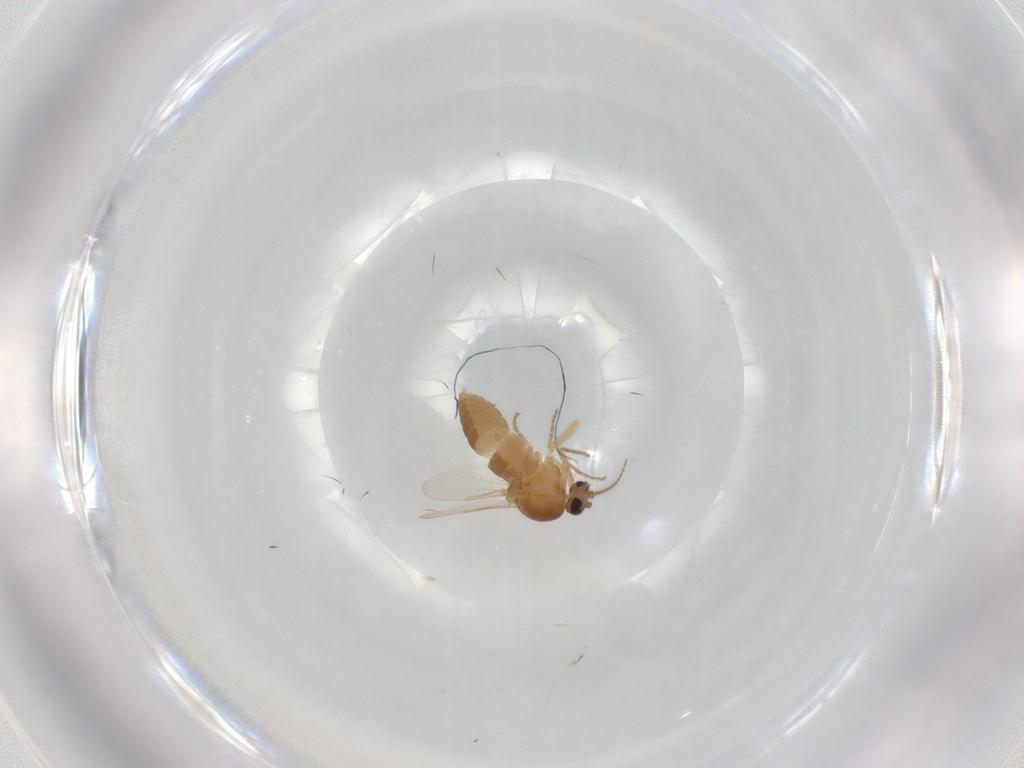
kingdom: Animalia
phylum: Arthropoda
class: Insecta
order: Diptera
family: Ceratopogonidae
